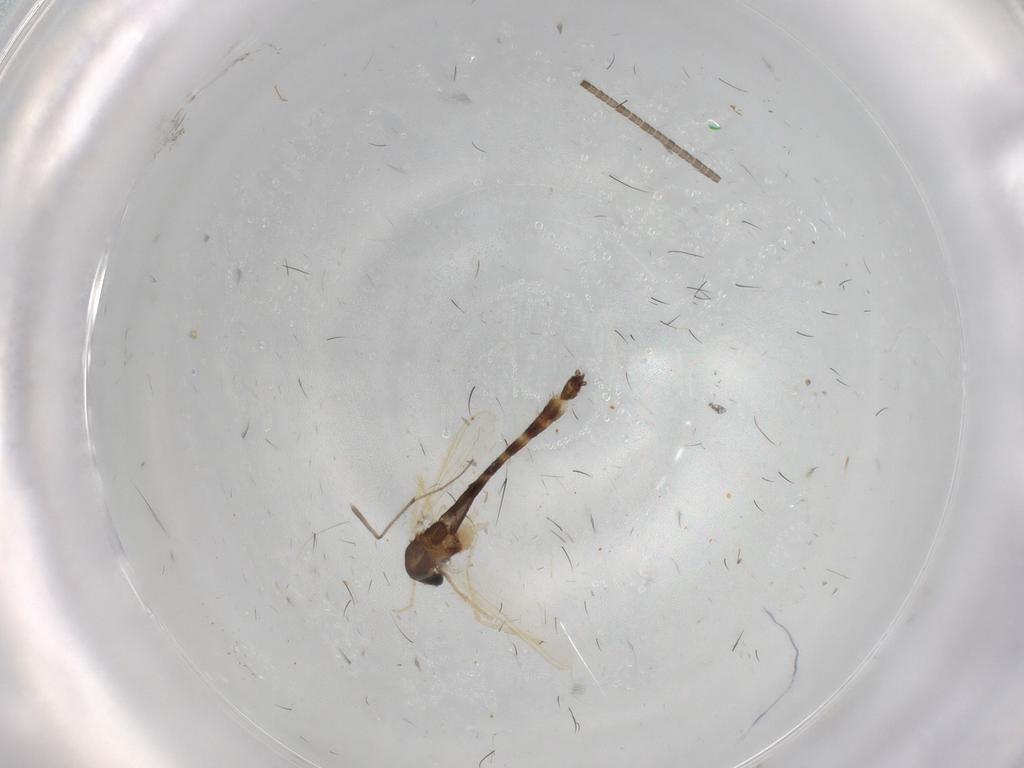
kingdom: Animalia
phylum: Arthropoda
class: Insecta
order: Diptera
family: Chironomidae
